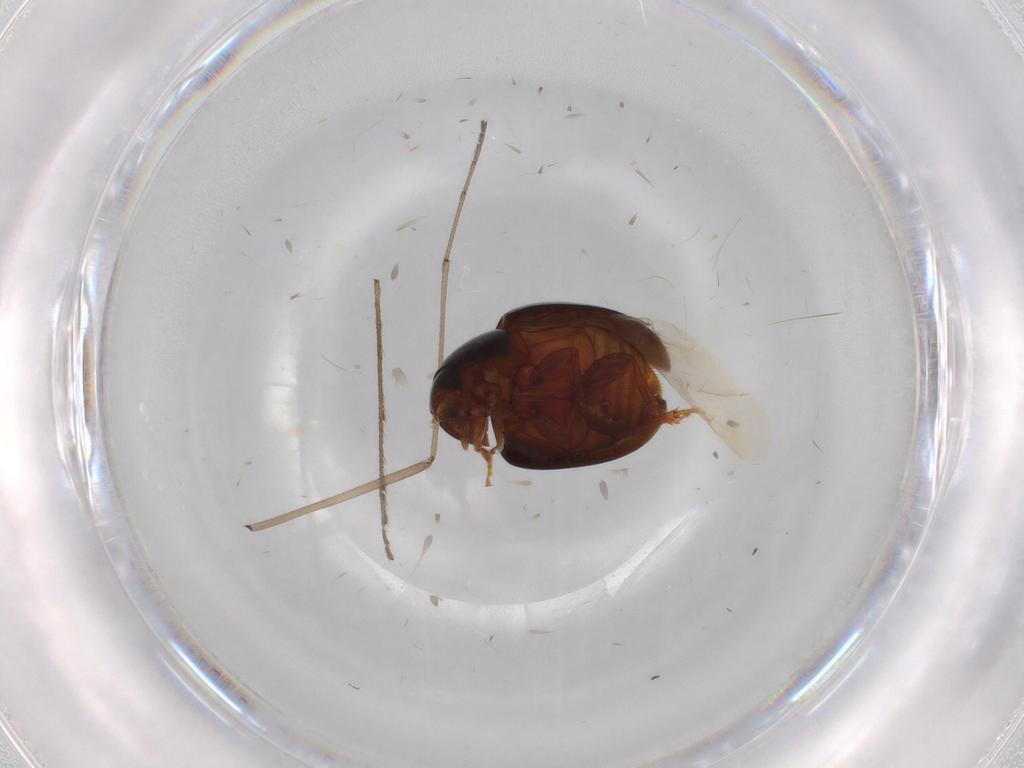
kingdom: Animalia
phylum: Arthropoda
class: Insecta
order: Coleoptera
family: Phalacridae
